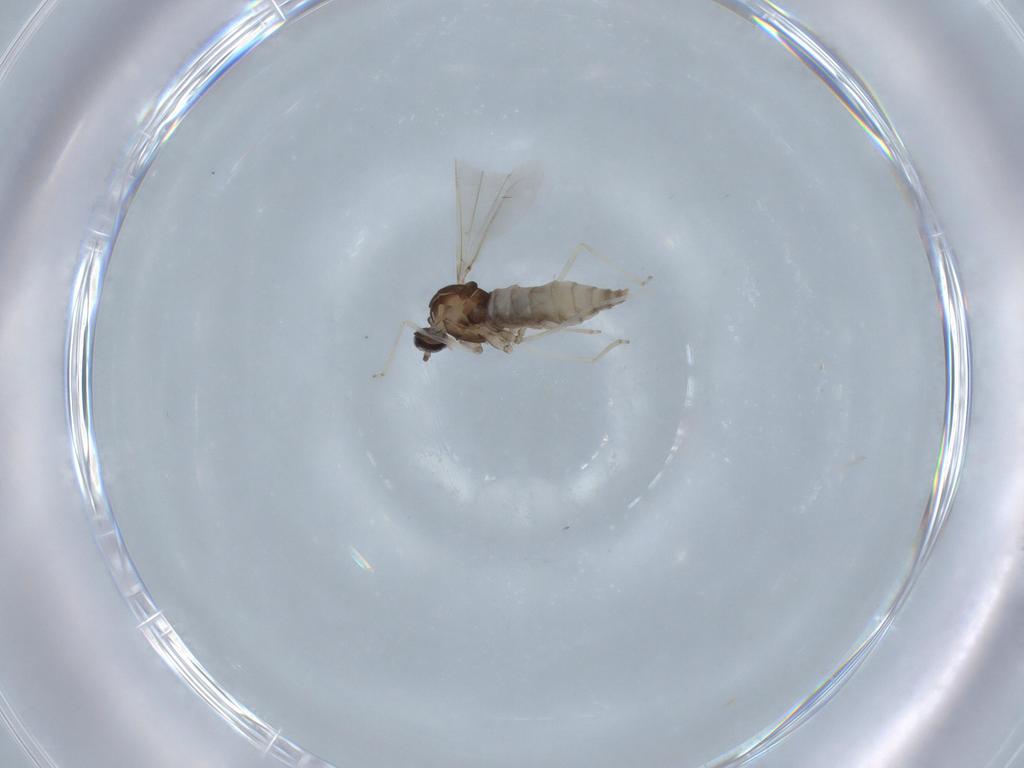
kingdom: Animalia
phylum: Arthropoda
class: Insecta
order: Diptera
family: Cecidomyiidae
